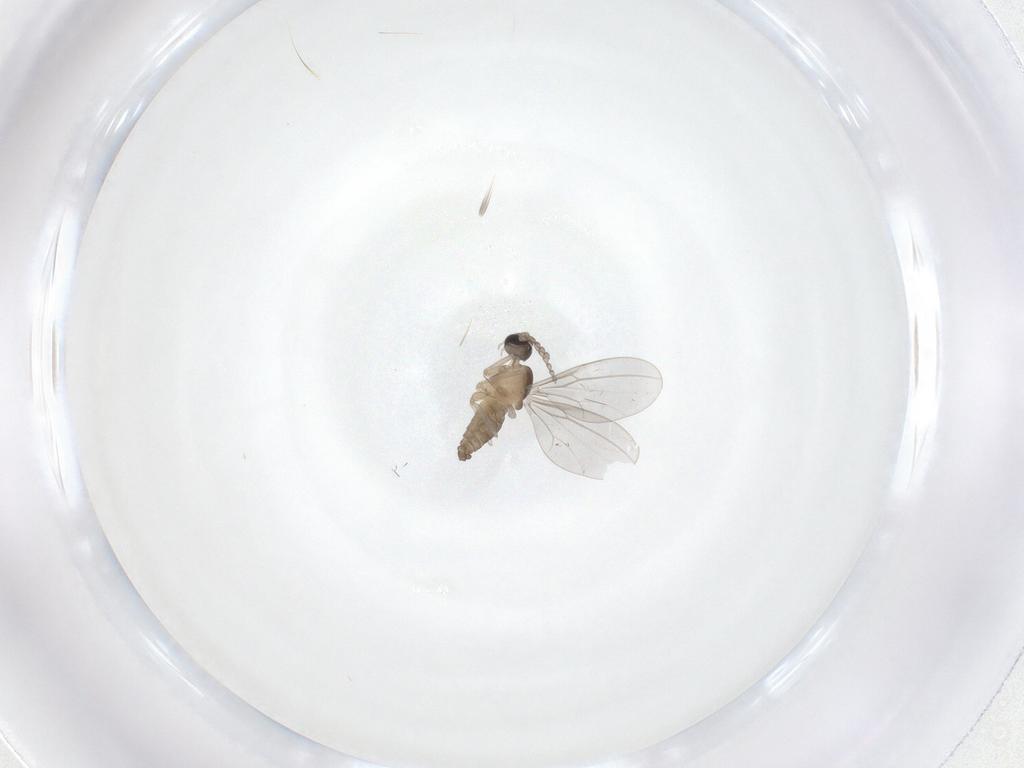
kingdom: Animalia
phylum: Arthropoda
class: Insecta
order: Diptera
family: Cecidomyiidae
